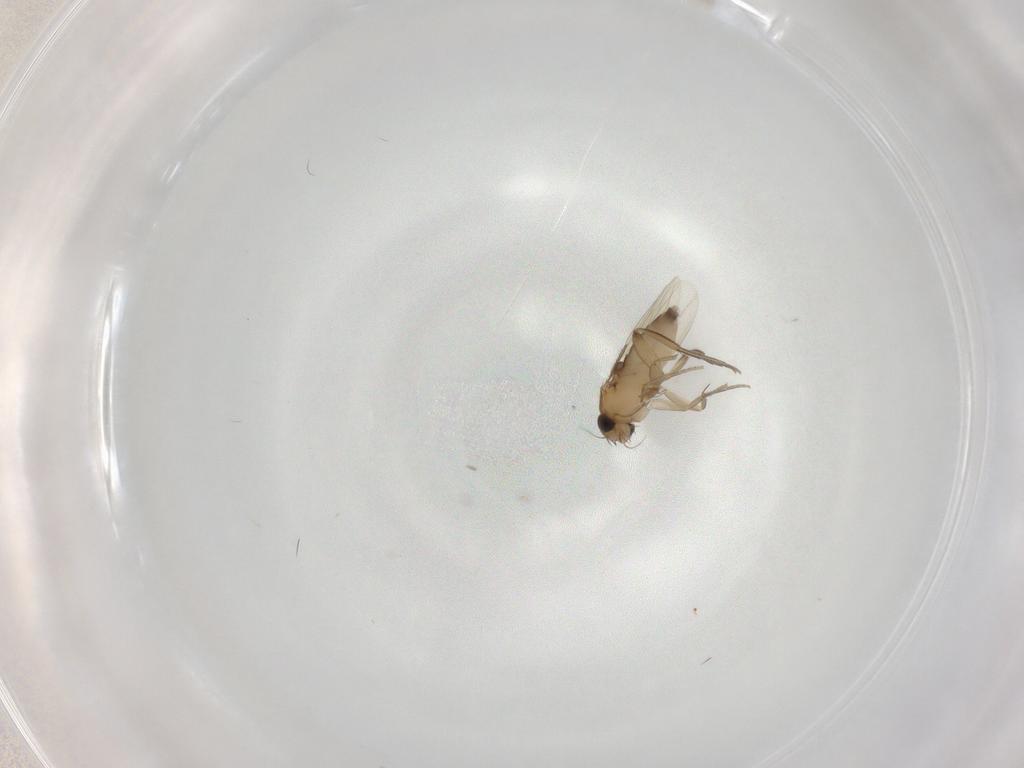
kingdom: Animalia
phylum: Arthropoda
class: Insecta
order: Diptera
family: Phoridae
